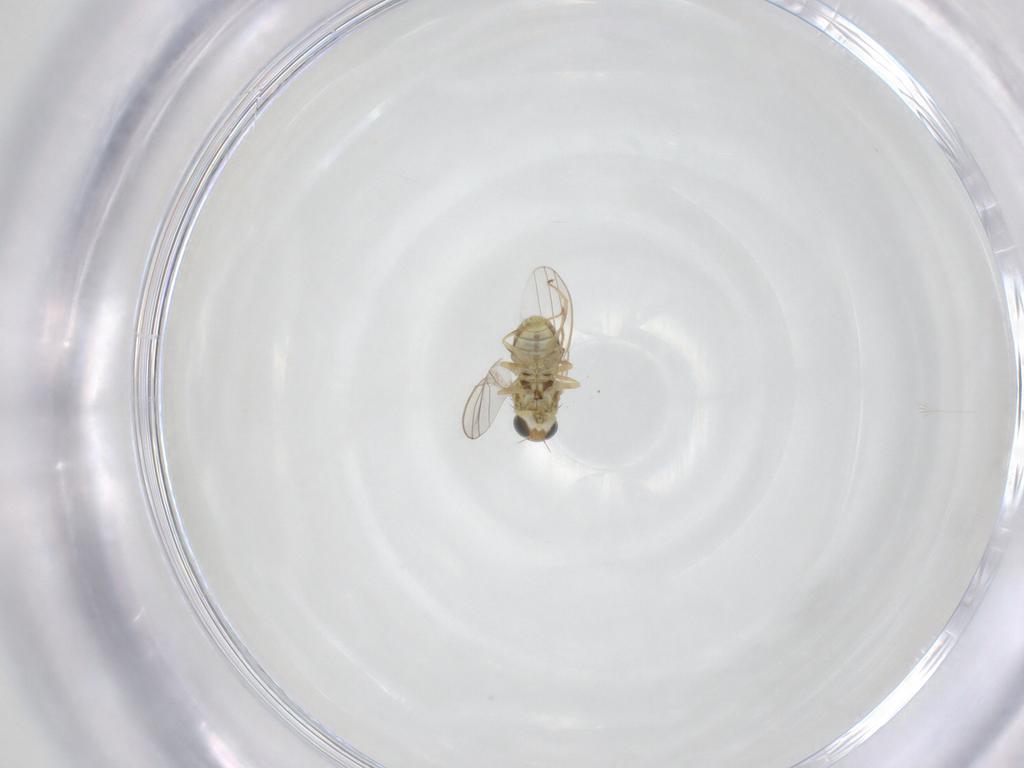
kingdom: Animalia
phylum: Arthropoda
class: Insecta
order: Diptera
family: Chyromyidae
